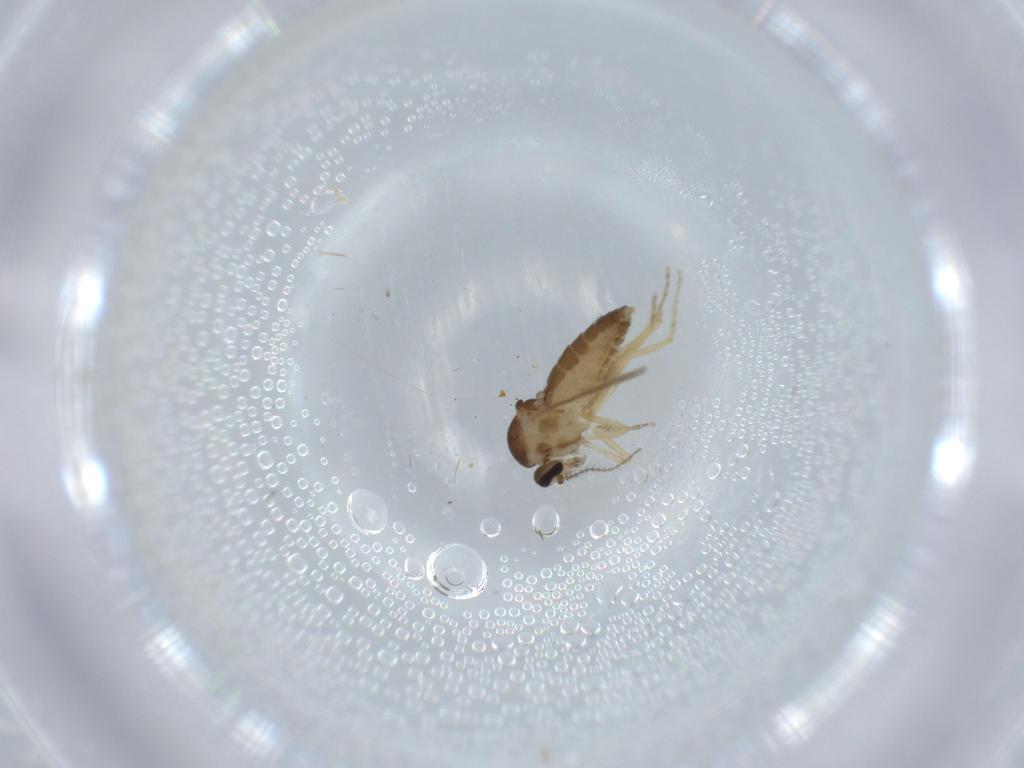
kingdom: Animalia
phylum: Arthropoda
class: Insecta
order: Diptera
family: Ceratopogonidae
